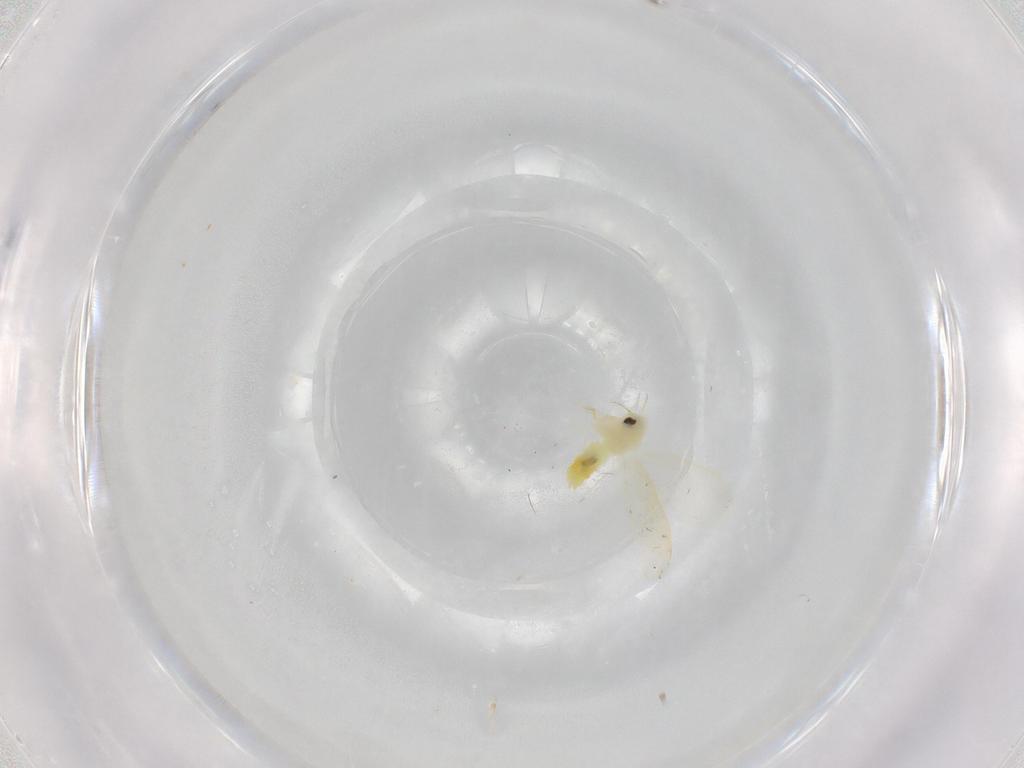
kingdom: Animalia
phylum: Arthropoda
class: Insecta
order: Hemiptera
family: Aleyrodidae
